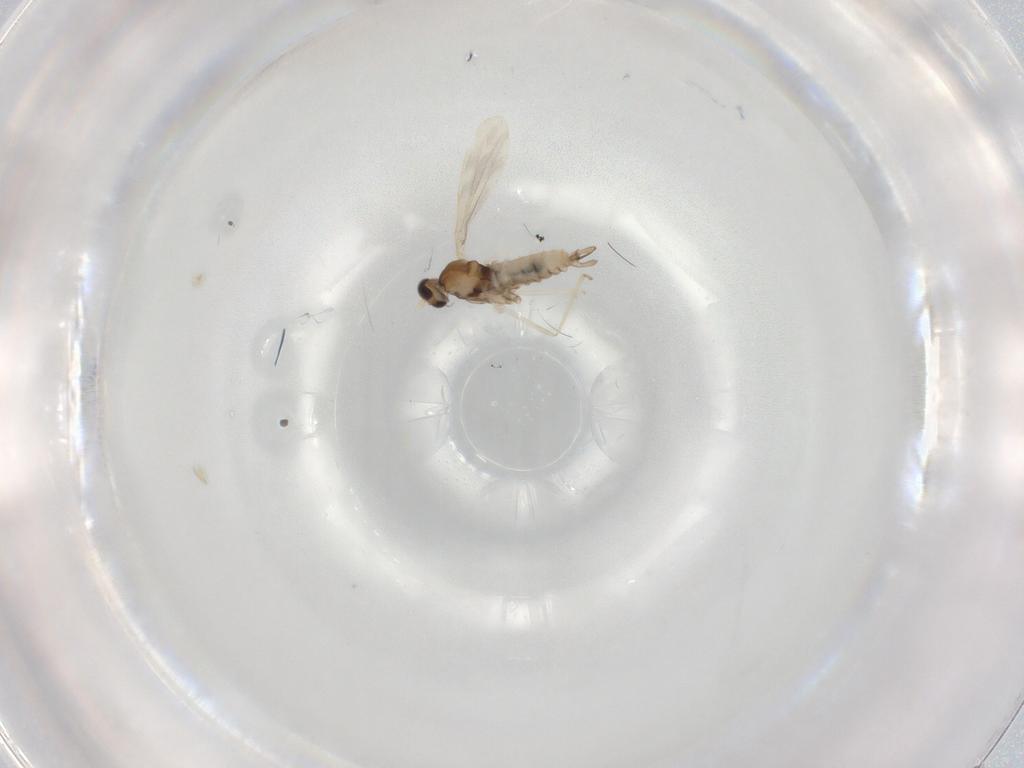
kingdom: Animalia
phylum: Arthropoda
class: Insecta
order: Diptera
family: Cecidomyiidae
